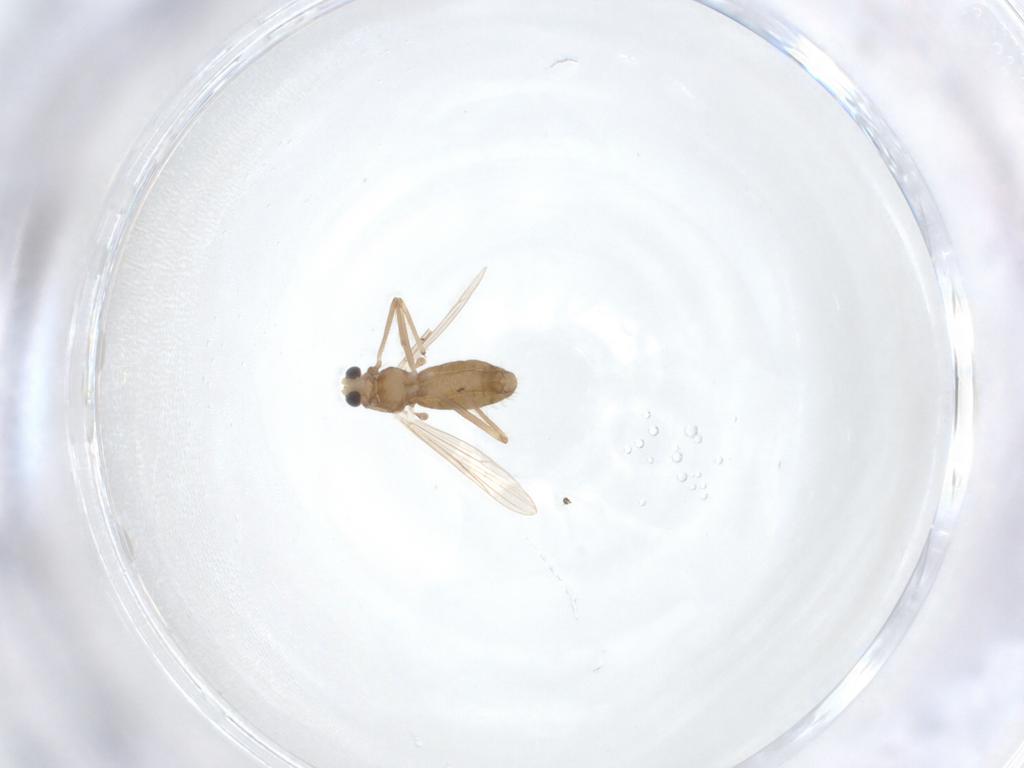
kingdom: Animalia
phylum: Arthropoda
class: Insecta
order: Diptera
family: Chironomidae
